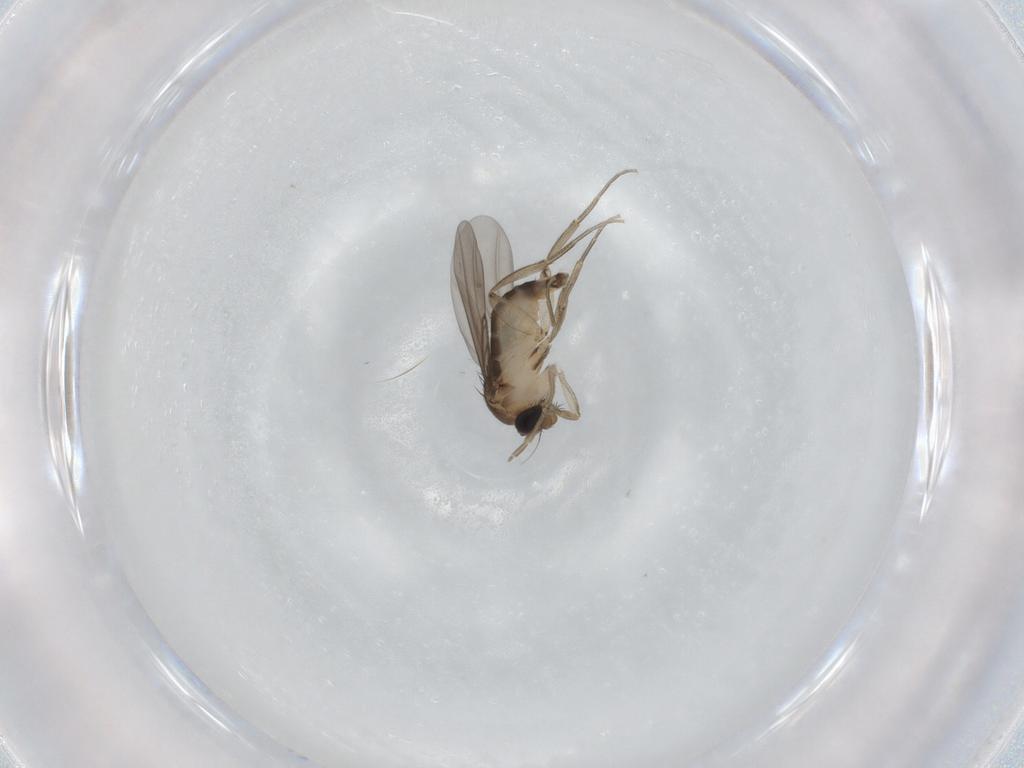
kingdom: Animalia
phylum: Arthropoda
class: Insecta
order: Diptera
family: Phoridae
